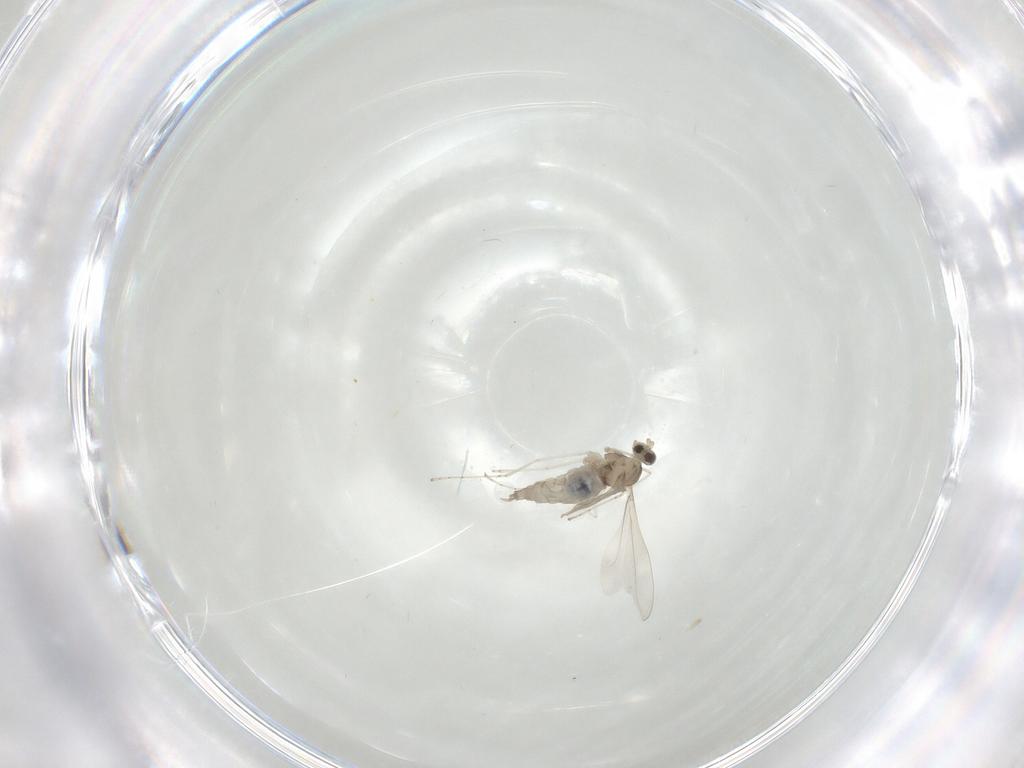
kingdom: Animalia
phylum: Arthropoda
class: Insecta
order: Diptera
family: Cecidomyiidae
